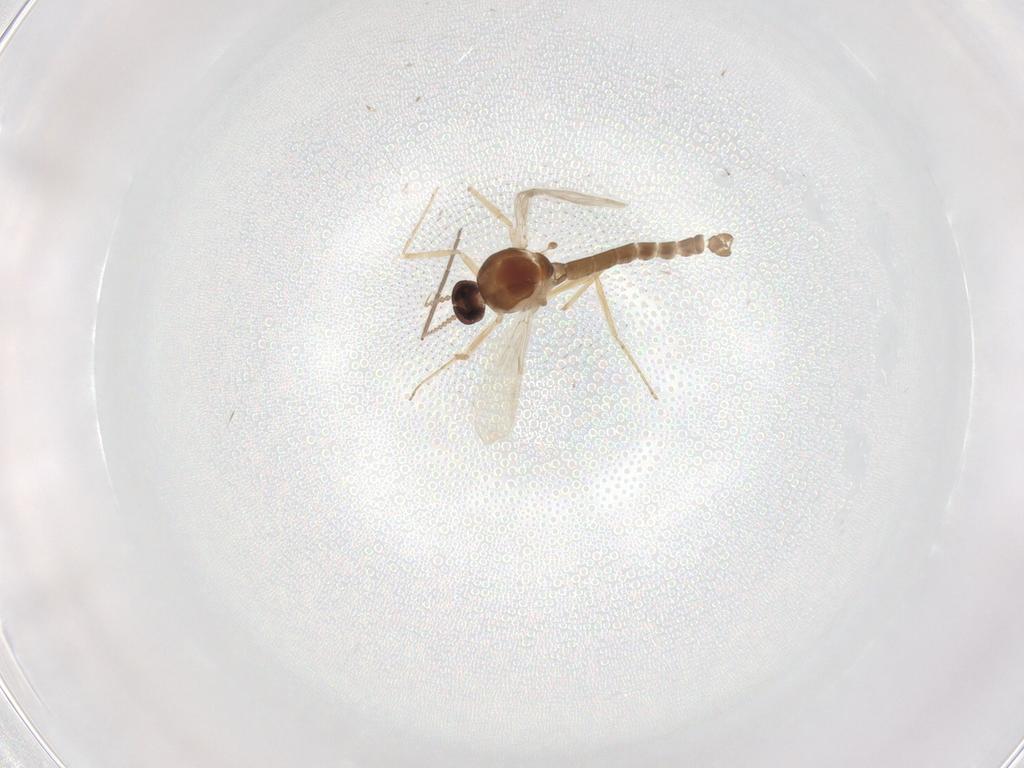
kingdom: Animalia
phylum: Arthropoda
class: Insecta
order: Diptera
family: Chironomidae
